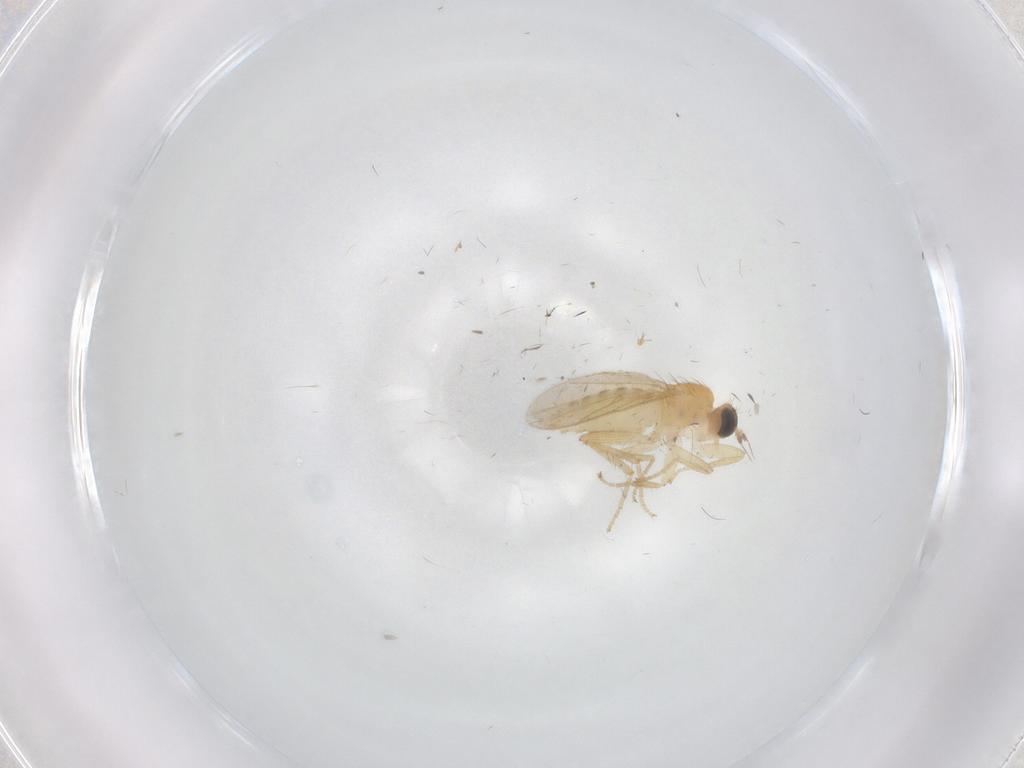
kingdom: Animalia
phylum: Arthropoda
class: Insecta
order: Diptera
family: Hybotidae
